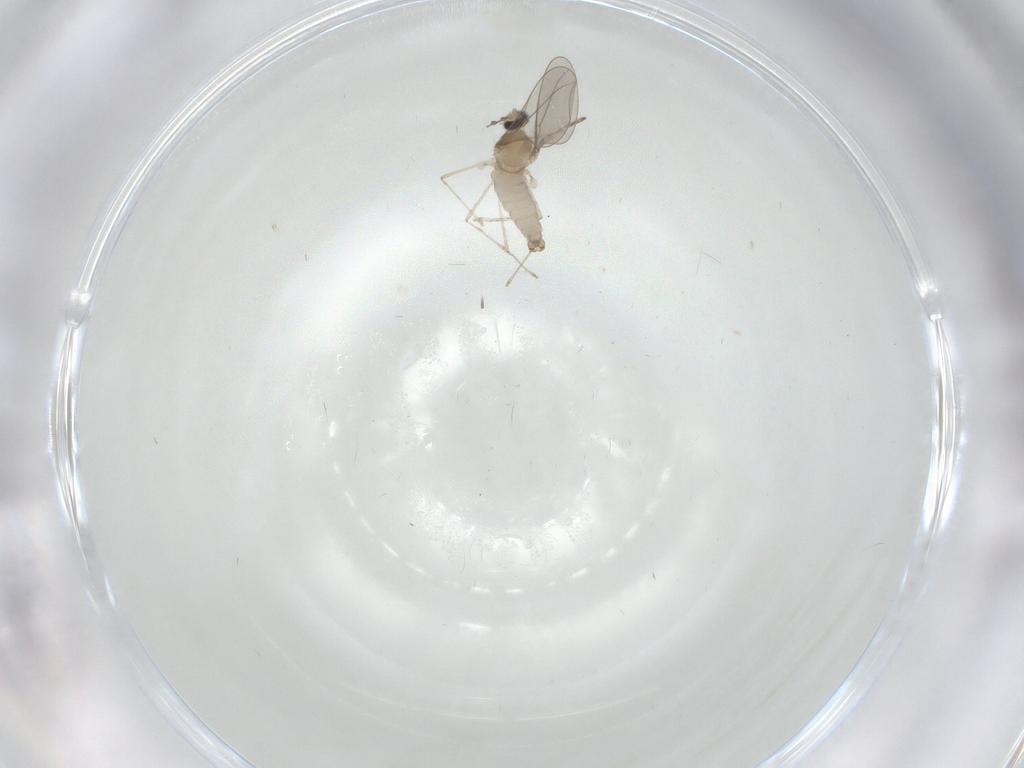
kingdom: Animalia
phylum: Arthropoda
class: Insecta
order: Diptera
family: Cecidomyiidae
